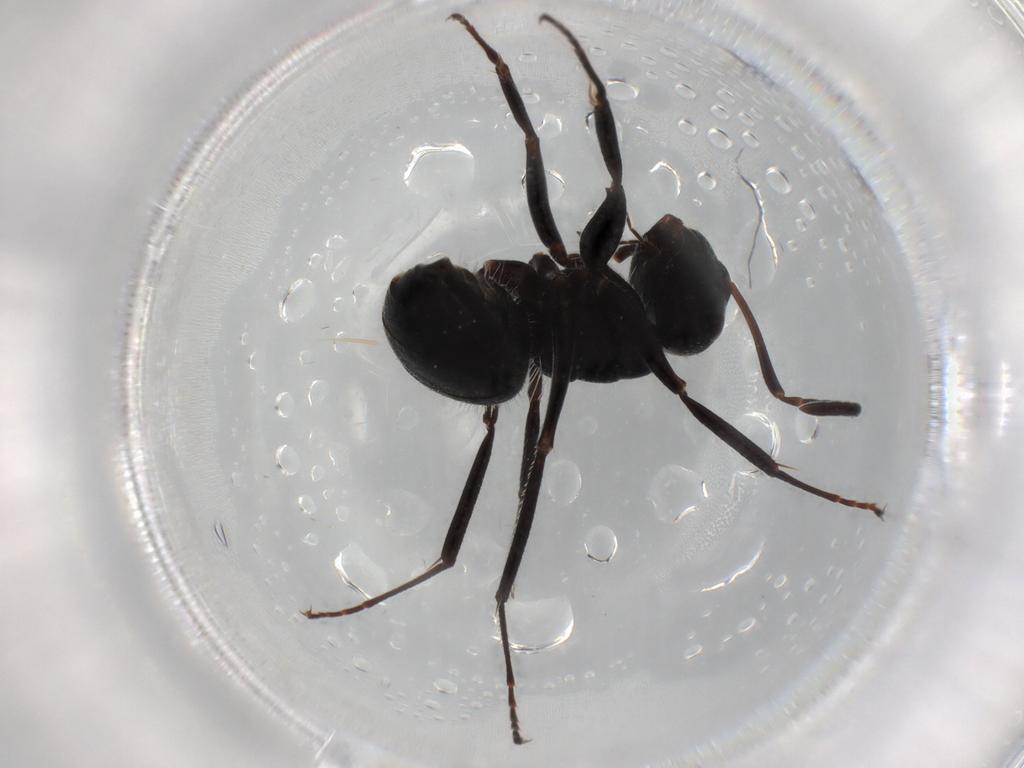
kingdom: Animalia
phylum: Arthropoda
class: Insecta
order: Hymenoptera
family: Formicidae
